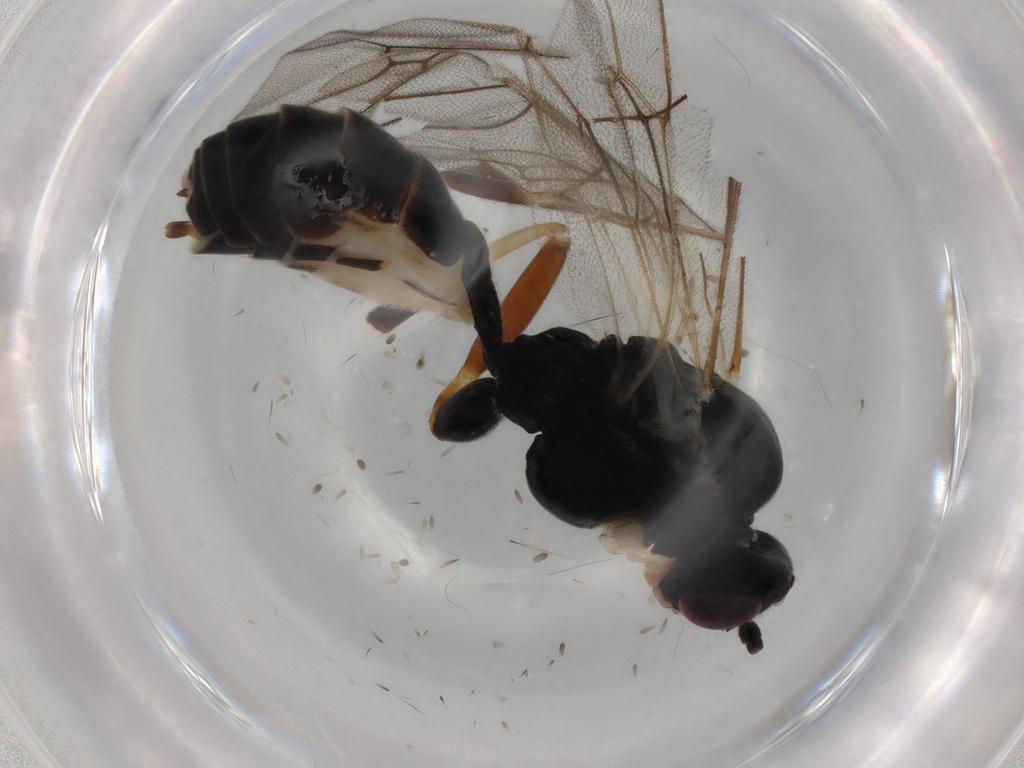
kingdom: Animalia
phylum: Arthropoda
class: Insecta
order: Hymenoptera
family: Ichneumonidae
